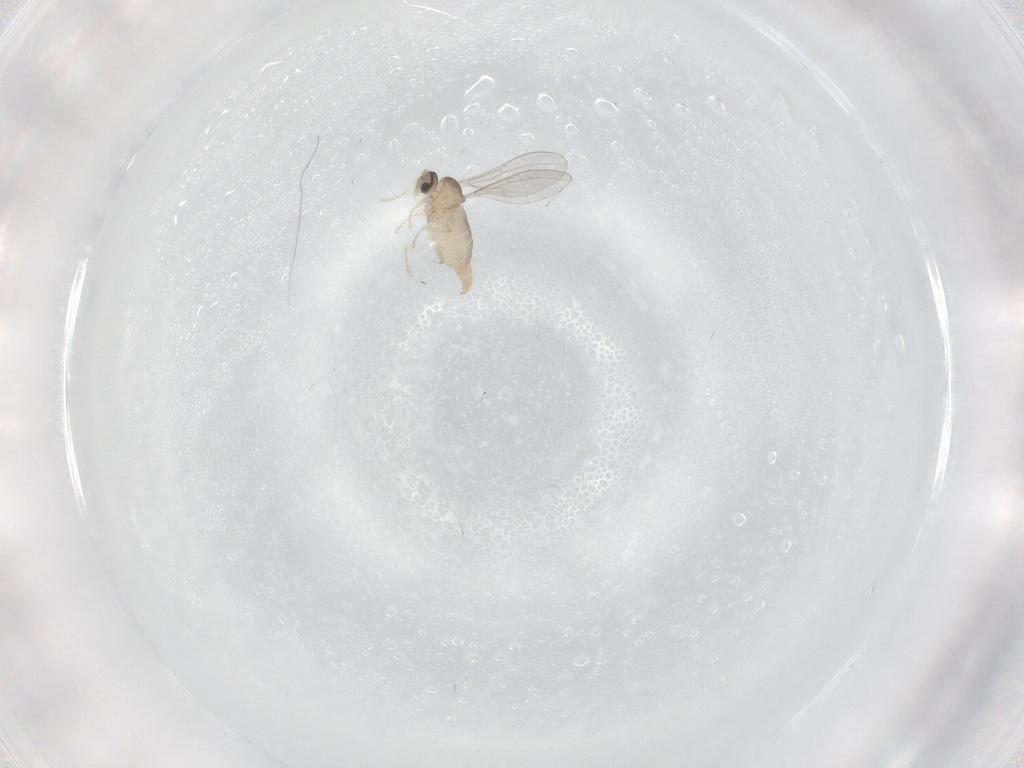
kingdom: Animalia
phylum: Arthropoda
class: Insecta
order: Diptera
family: Cecidomyiidae
